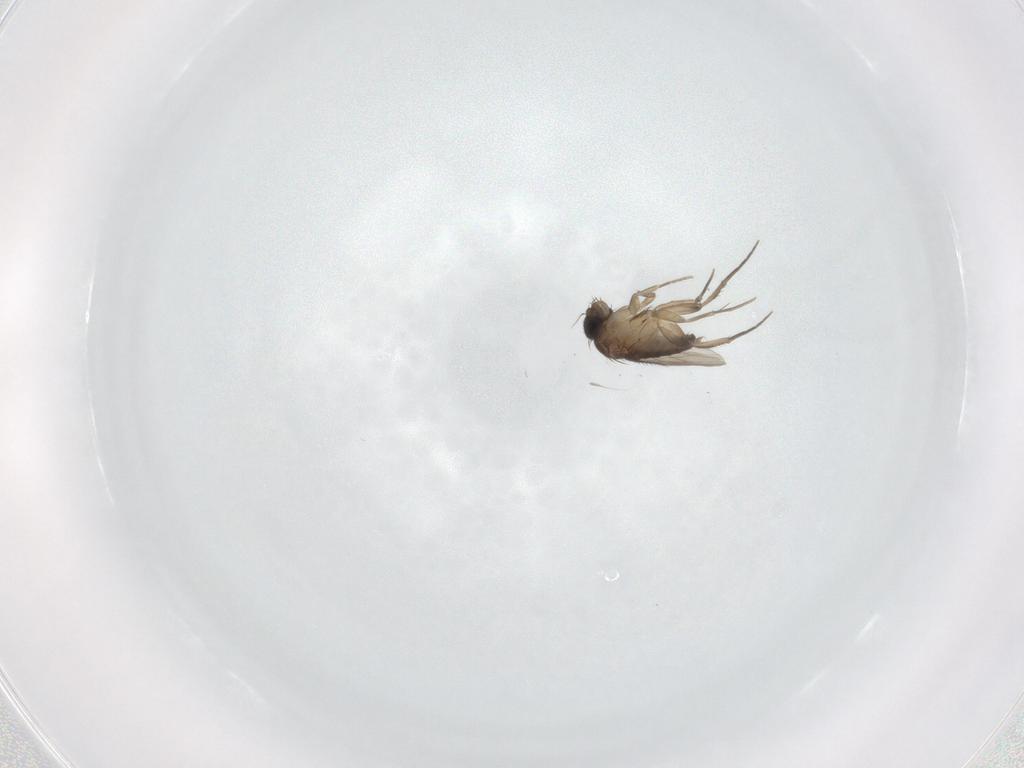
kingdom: Animalia
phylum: Arthropoda
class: Insecta
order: Diptera
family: Phoridae
